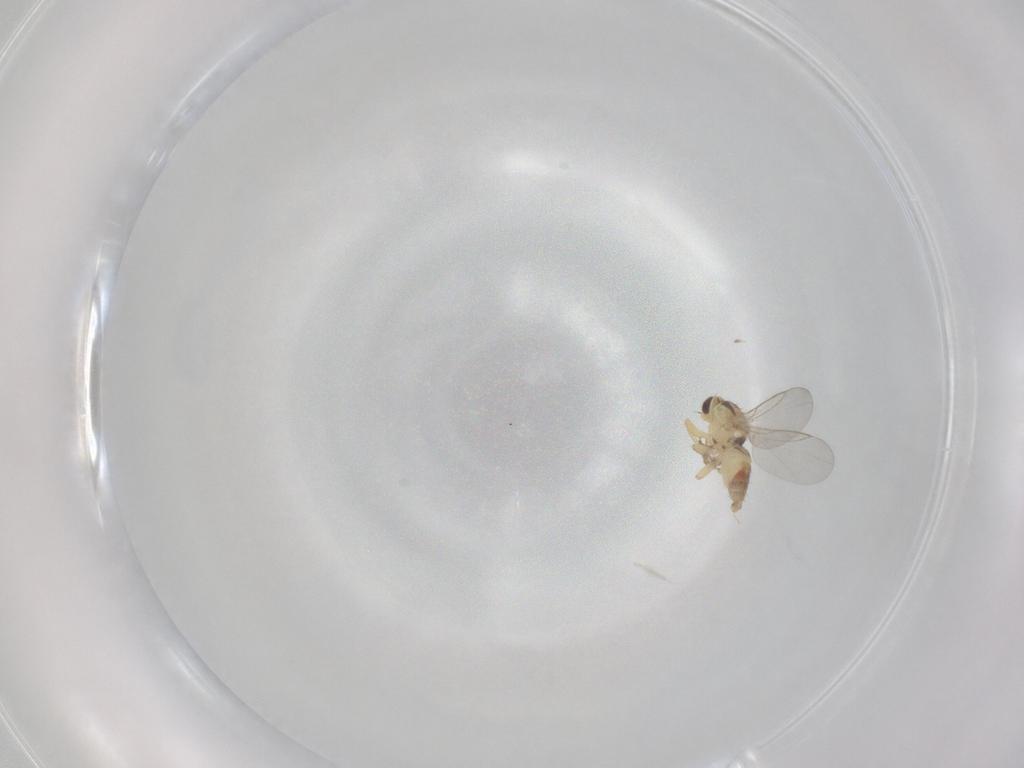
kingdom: Animalia
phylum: Arthropoda
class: Insecta
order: Diptera
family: Agromyzidae
